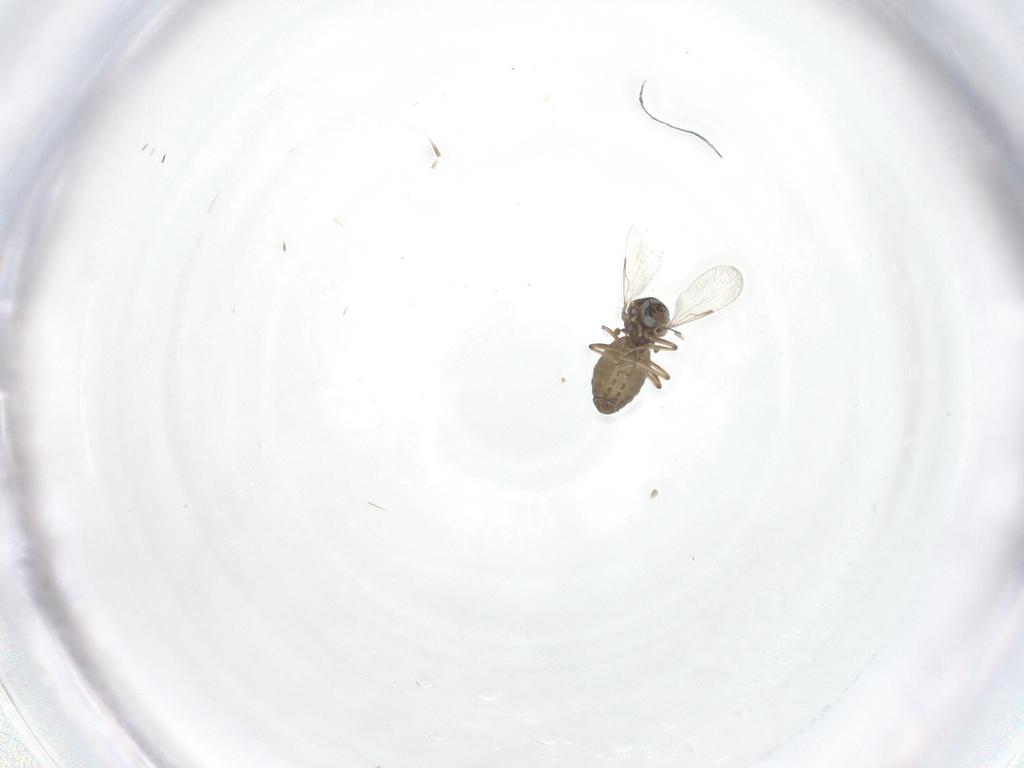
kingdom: Animalia
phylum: Arthropoda
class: Insecta
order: Diptera
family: Ceratopogonidae
